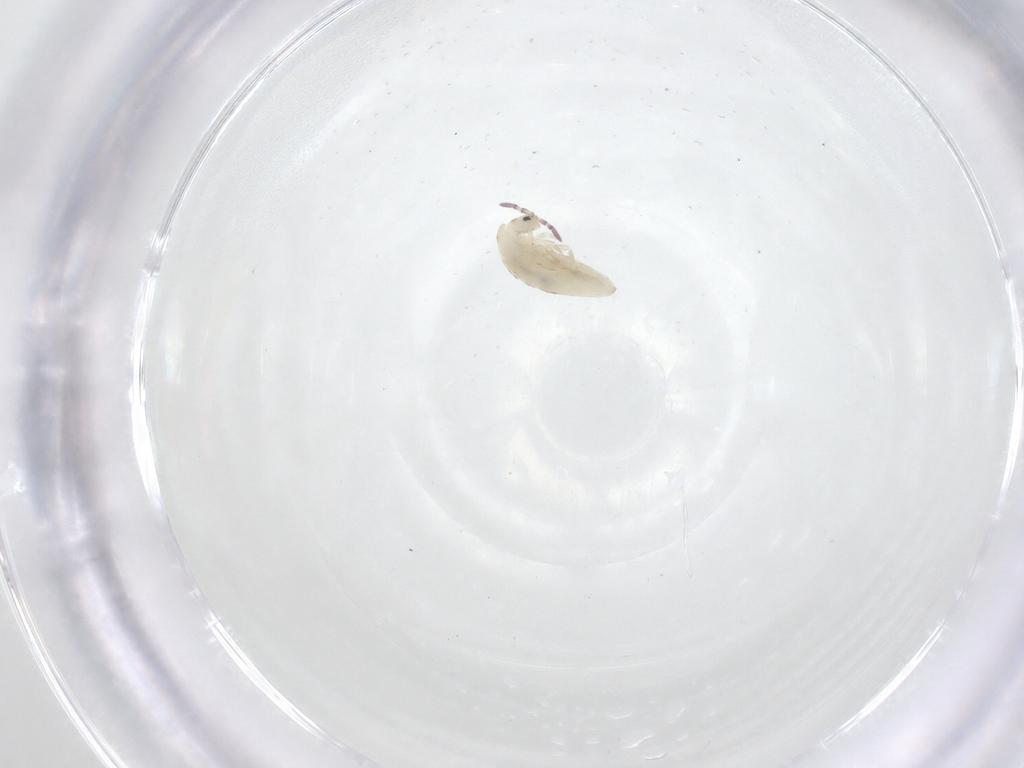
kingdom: Animalia
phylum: Arthropoda
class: Collembola
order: Entomobryomorpha
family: Entomobryidae
